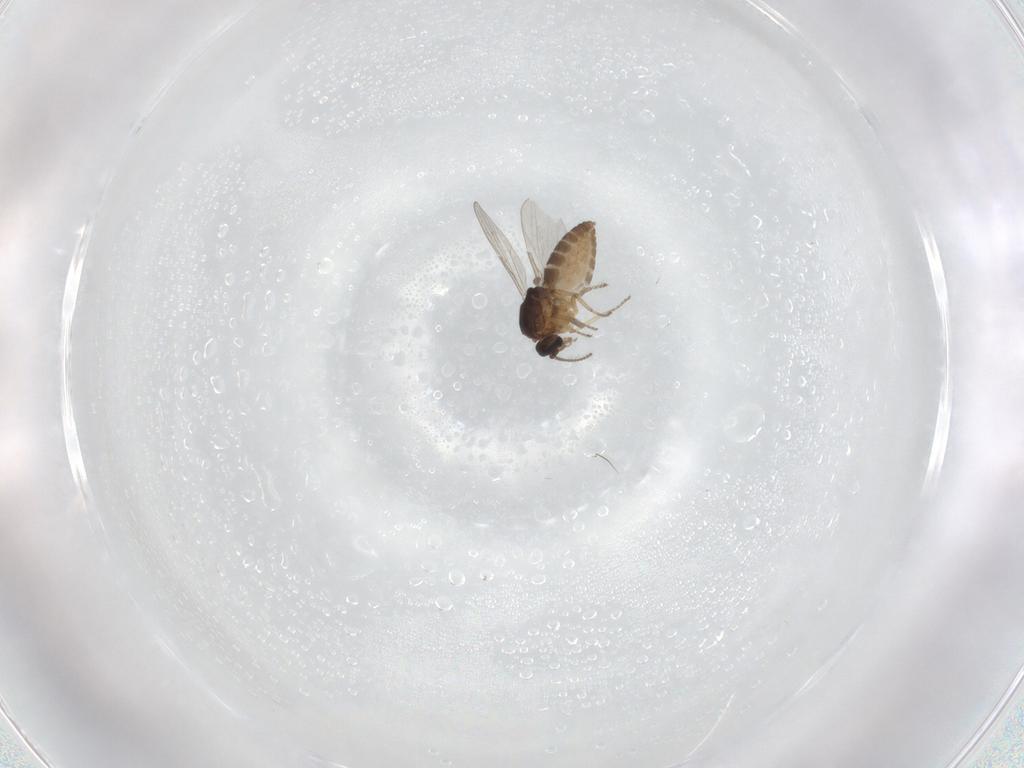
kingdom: Animalia
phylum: Arthropoda
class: Insecta
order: Diptera
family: Ceratopogonidae
